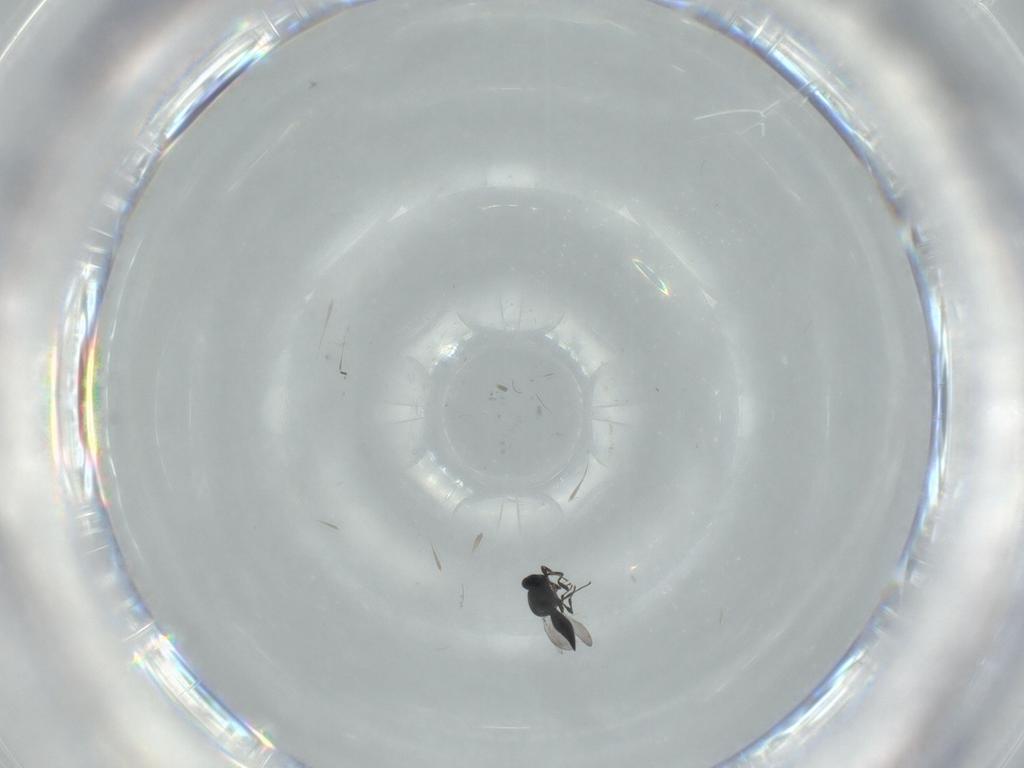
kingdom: Animalia
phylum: Arthropoda
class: Insecta
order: Hymenoptera
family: Platygastridae
